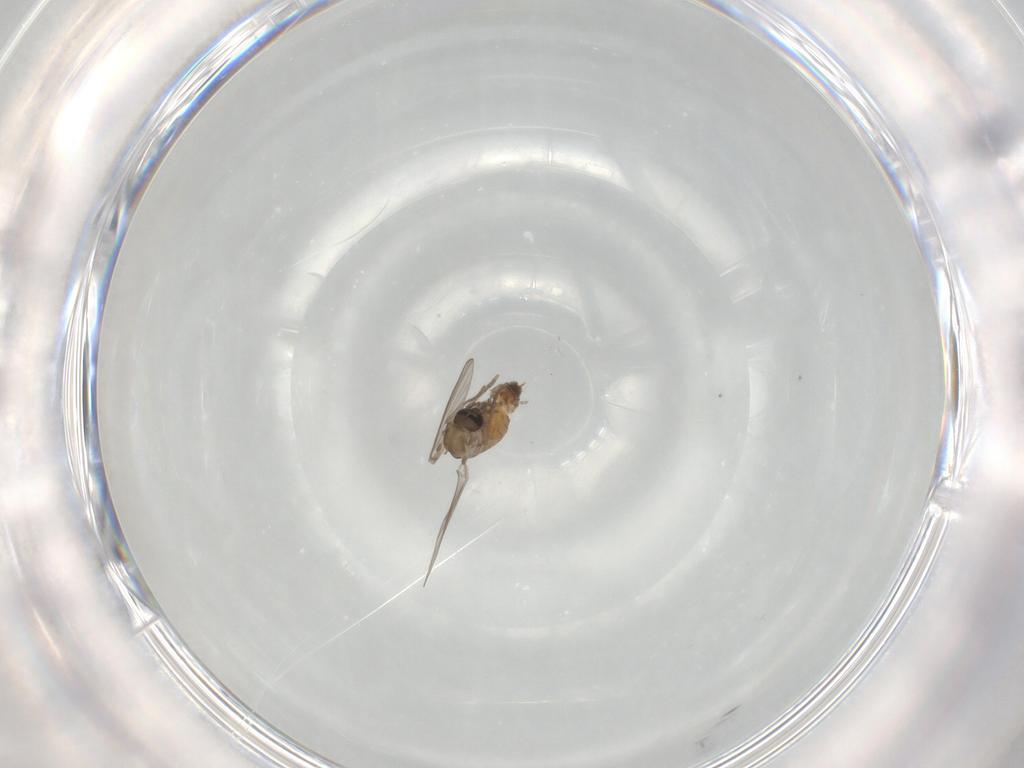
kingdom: Animalia
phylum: Arthropoda
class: Insecta
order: Diptera
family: Psychodidae
